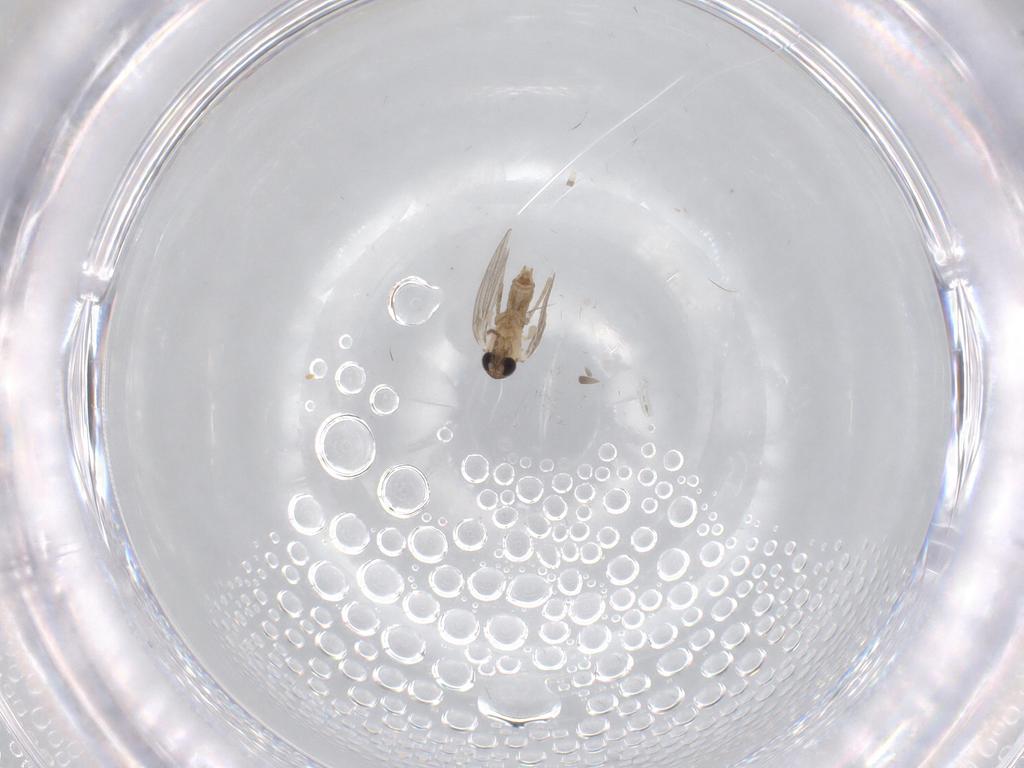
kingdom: Animalia
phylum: Arthropoda
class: Insecta
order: Diptera
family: Psychodidae
